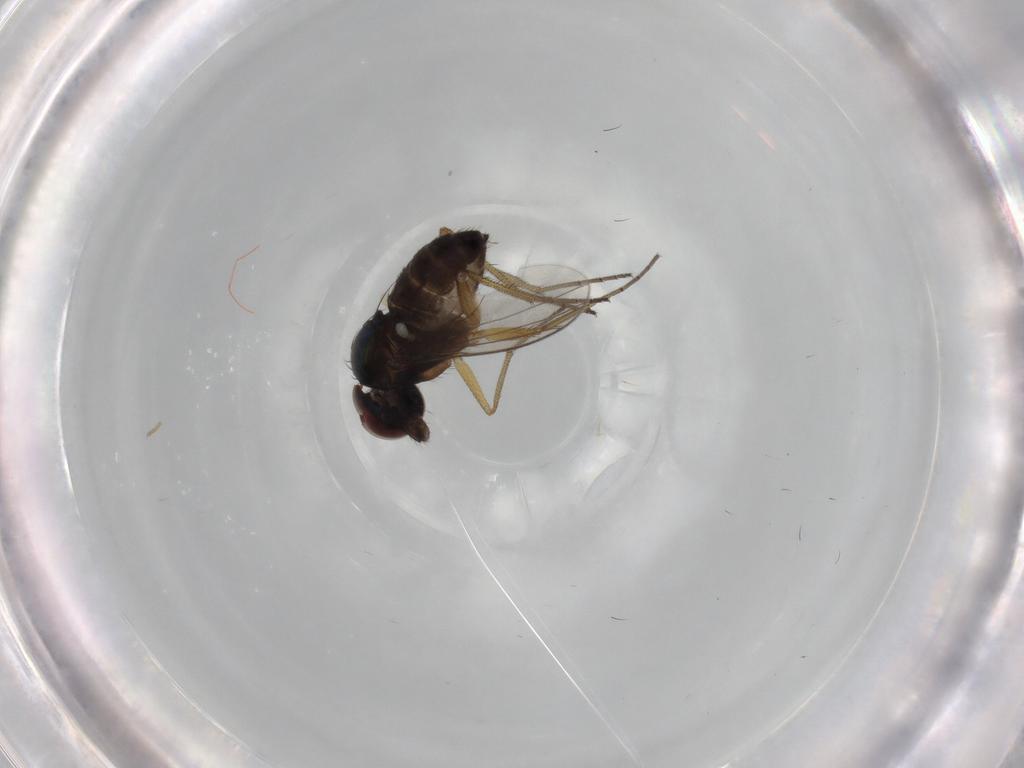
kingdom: Animalia
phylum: Arthropoda
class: Insecta
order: Diptera
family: Dolichopodidae
